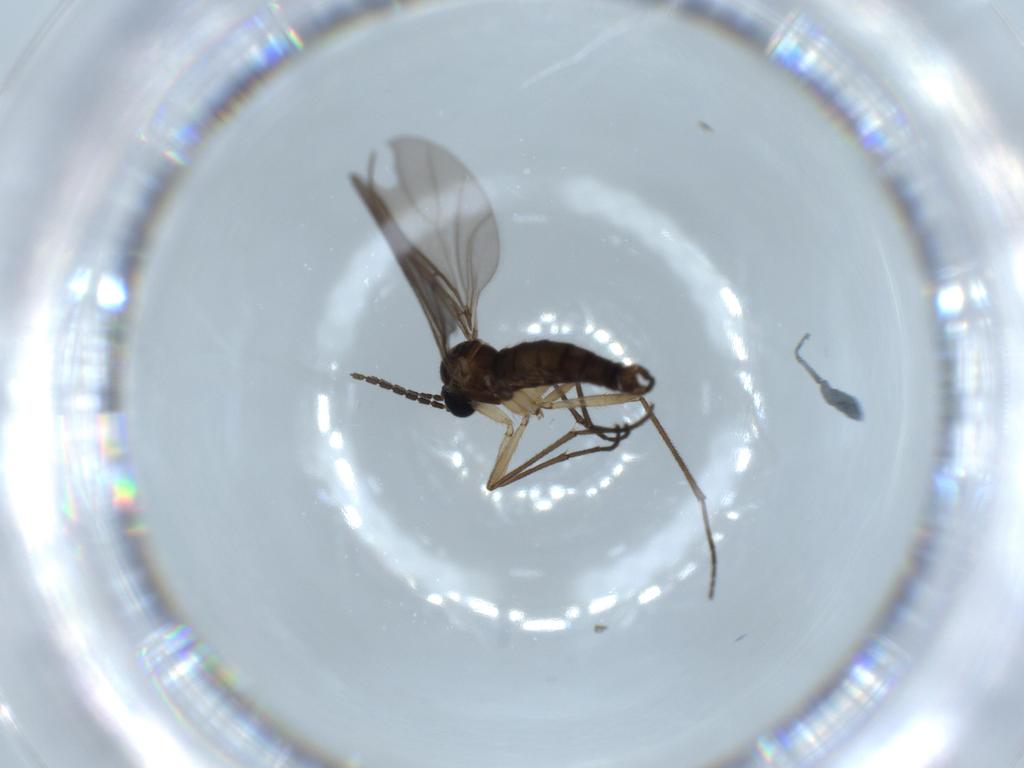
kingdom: Animalia
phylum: Arthropoda
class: Insecta
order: Diptera
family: Sciaridae
